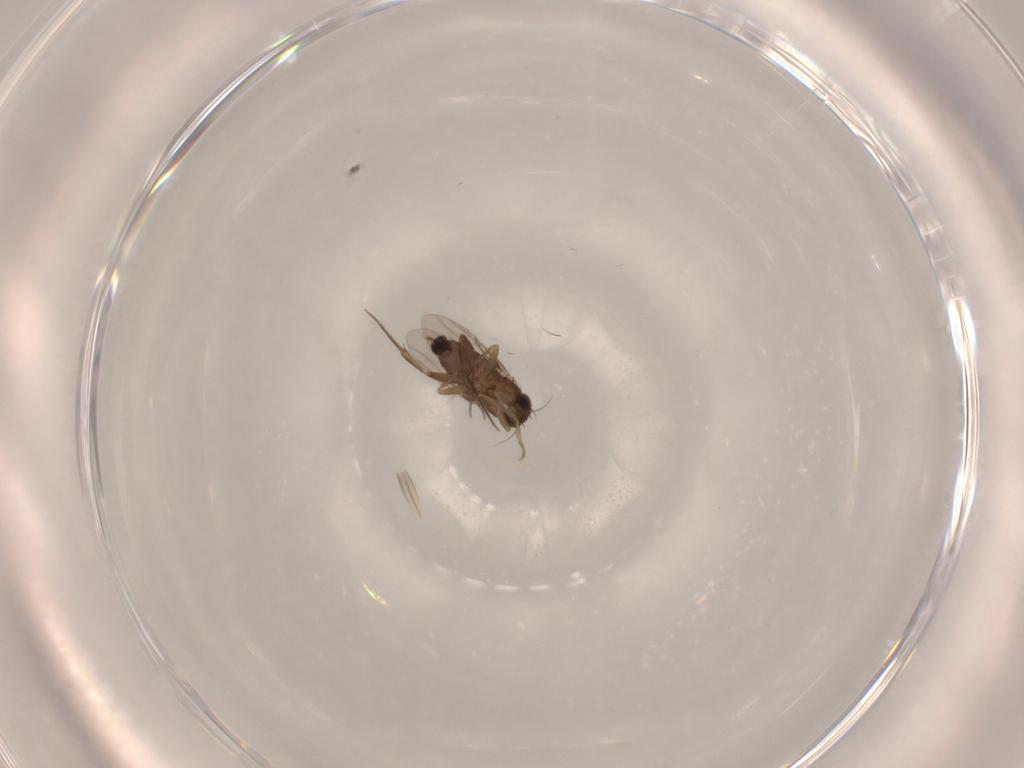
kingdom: Animalia
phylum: Arthropoda
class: Insecta
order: Diptera
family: Phoridae
